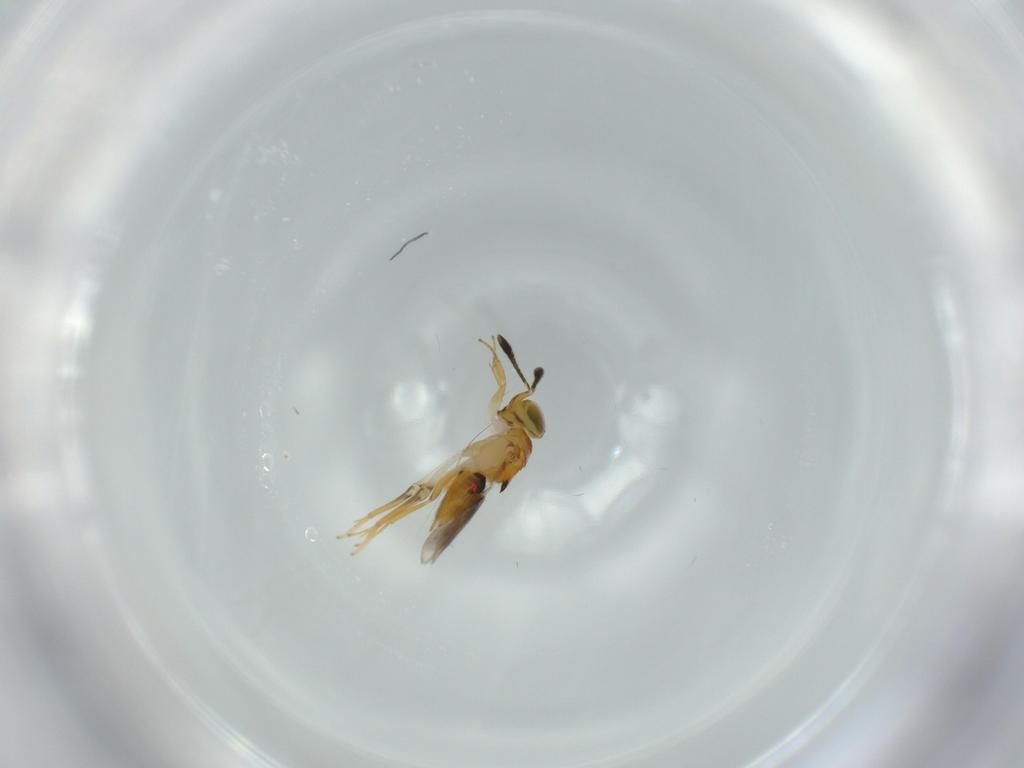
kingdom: Animalia
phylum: Arthropoda
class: Insecta
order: Hymenoptera
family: Encyrtidae
